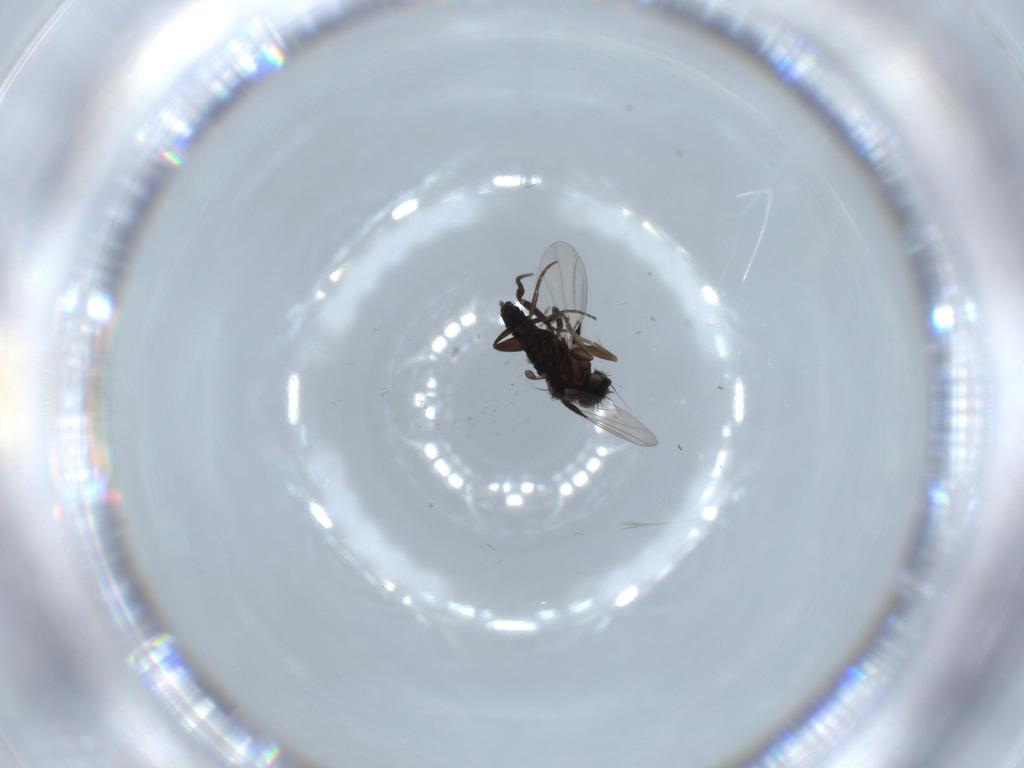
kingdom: Animalia
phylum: Arthropoda
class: Insecta
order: Diptera
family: Phoridae
